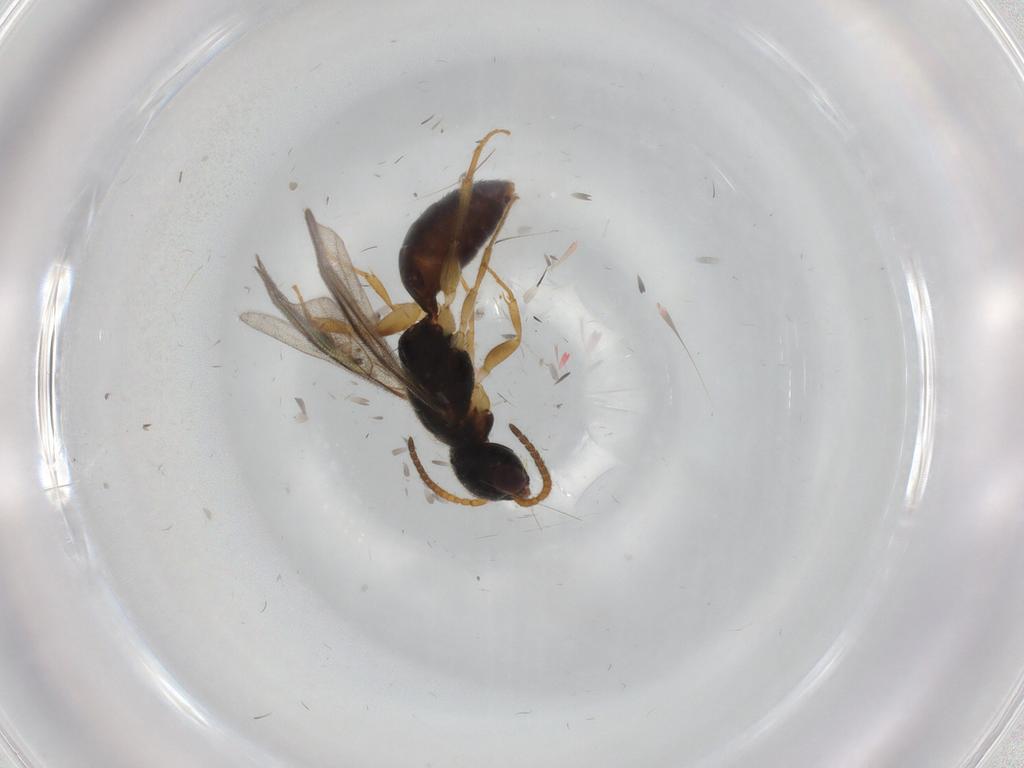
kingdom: Animalia
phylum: Arthropoda
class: Insecta
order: Hymenoptera
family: Bethylidae
